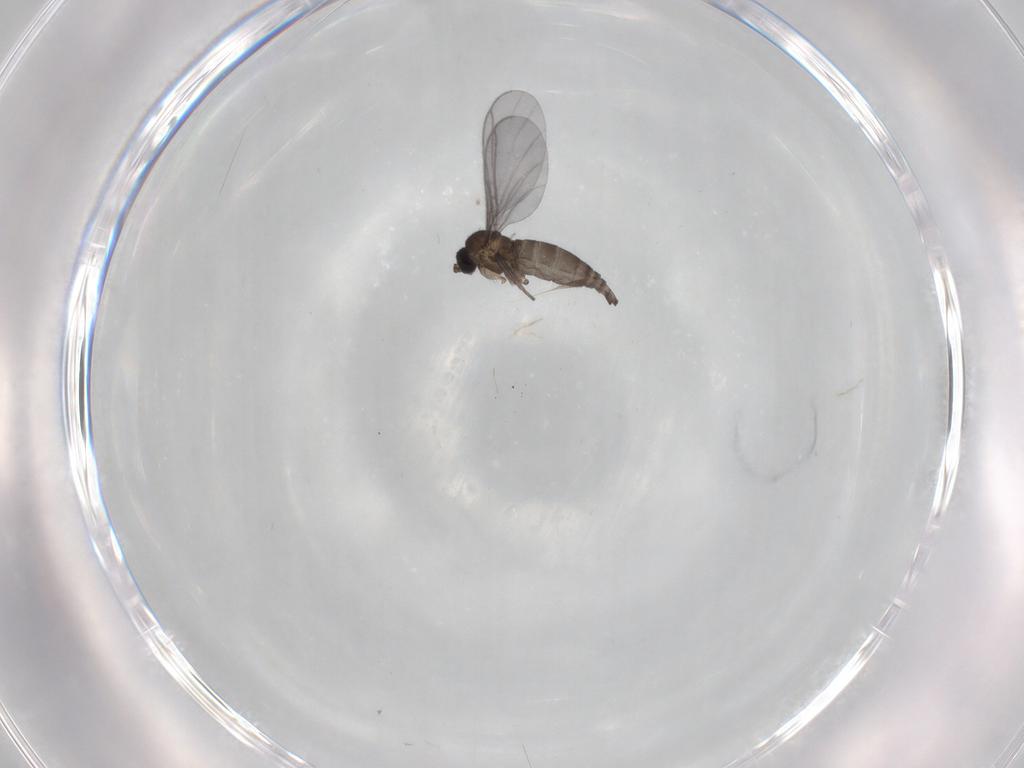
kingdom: Animalia
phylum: Arthropoda
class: Insecta
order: Diptera
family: Sciaridae
